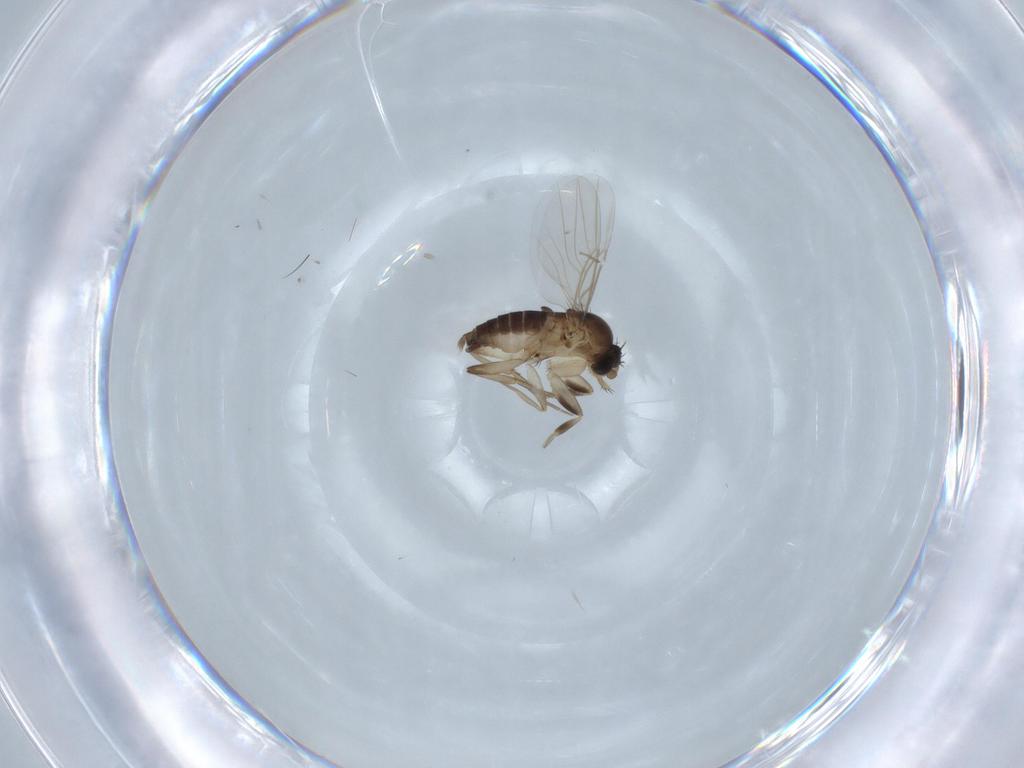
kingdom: Animalia
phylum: Arthropoda
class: Insecta
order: Diptera
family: Phoridae
